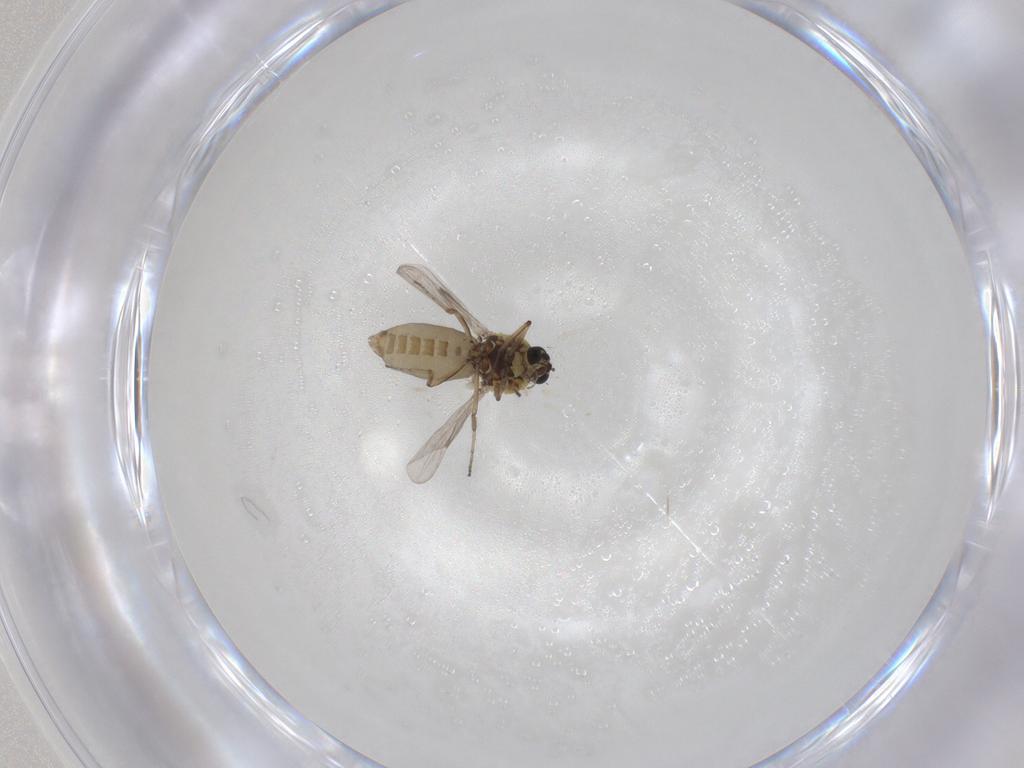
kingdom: Animalia
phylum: Arthropoda
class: Insecta
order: Diptera
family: Ceratopogonidae
